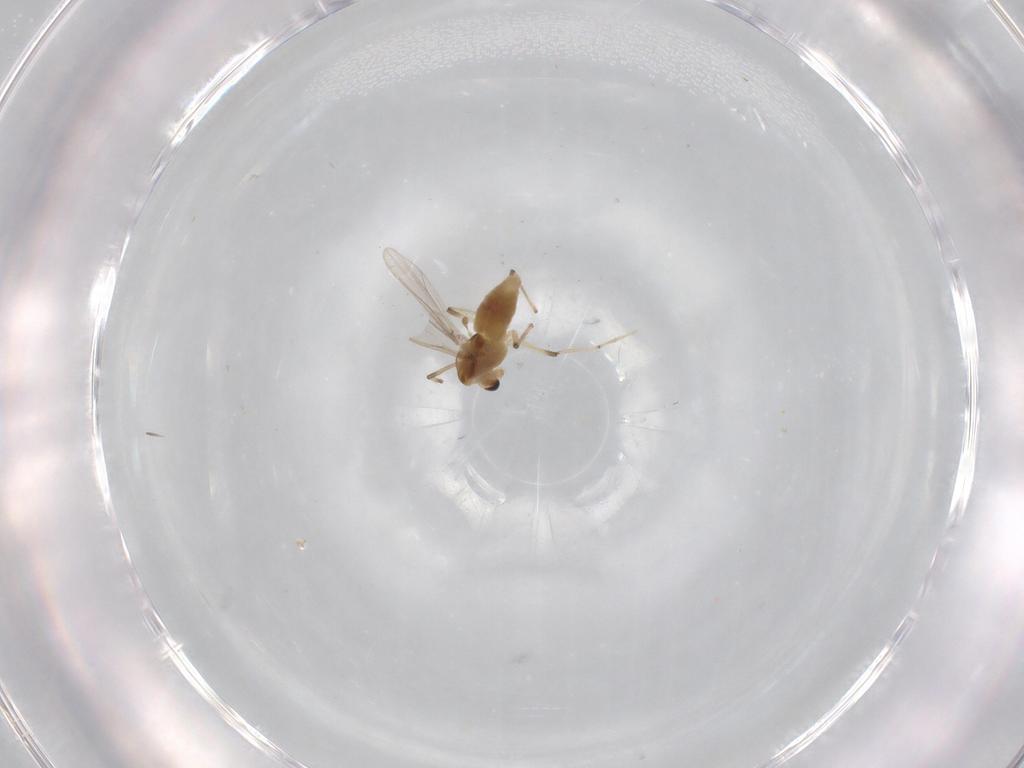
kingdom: Animalia
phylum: Arthropoda
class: Insecta
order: Diptera
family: Chironomidae
